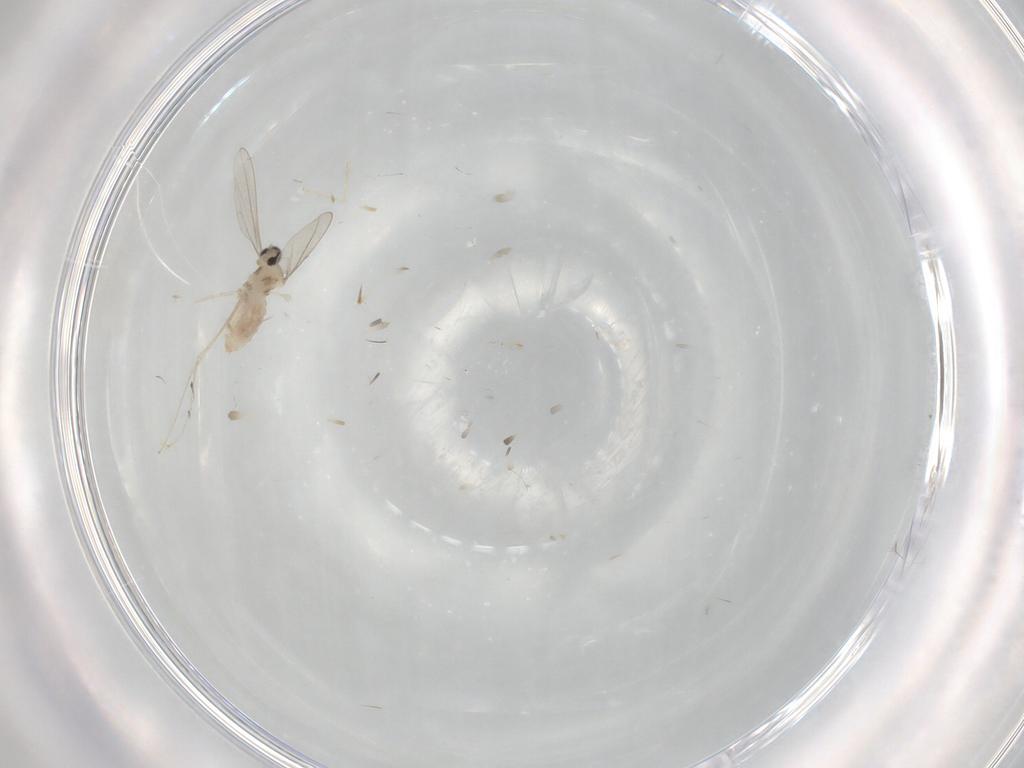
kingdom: Animalia
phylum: Arthropoda
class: Insecta
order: Diptera
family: Cecidomyiidae
